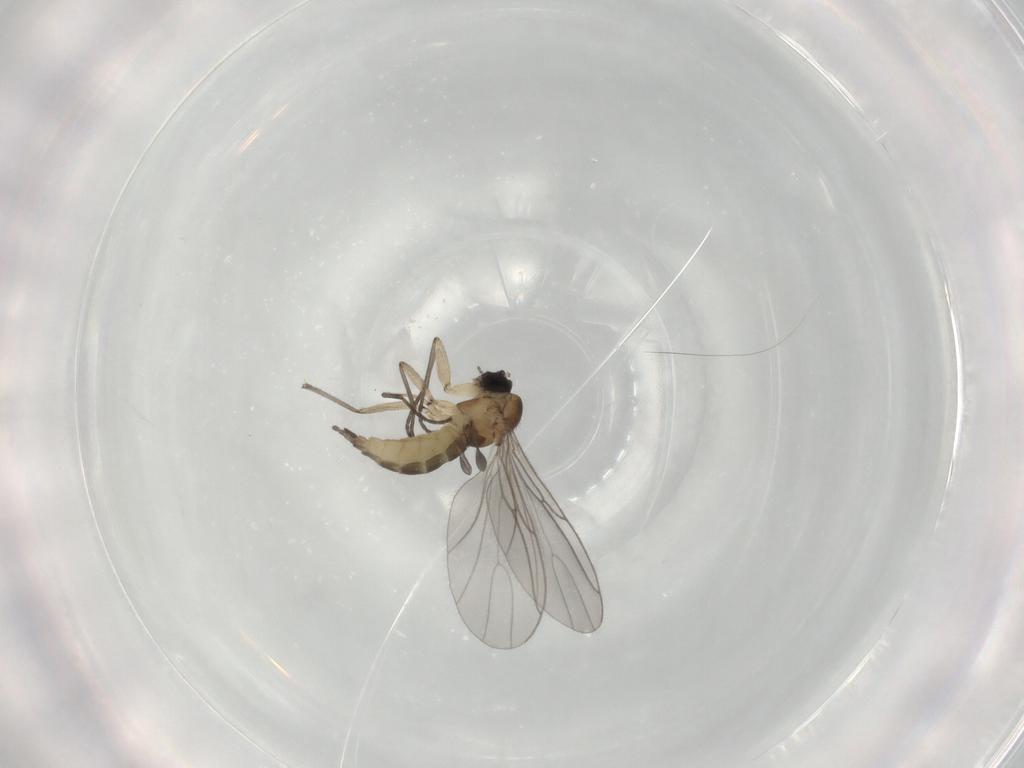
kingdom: Animalia
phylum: Arthropoda
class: Insecta
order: Diptera
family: Sciaridae
